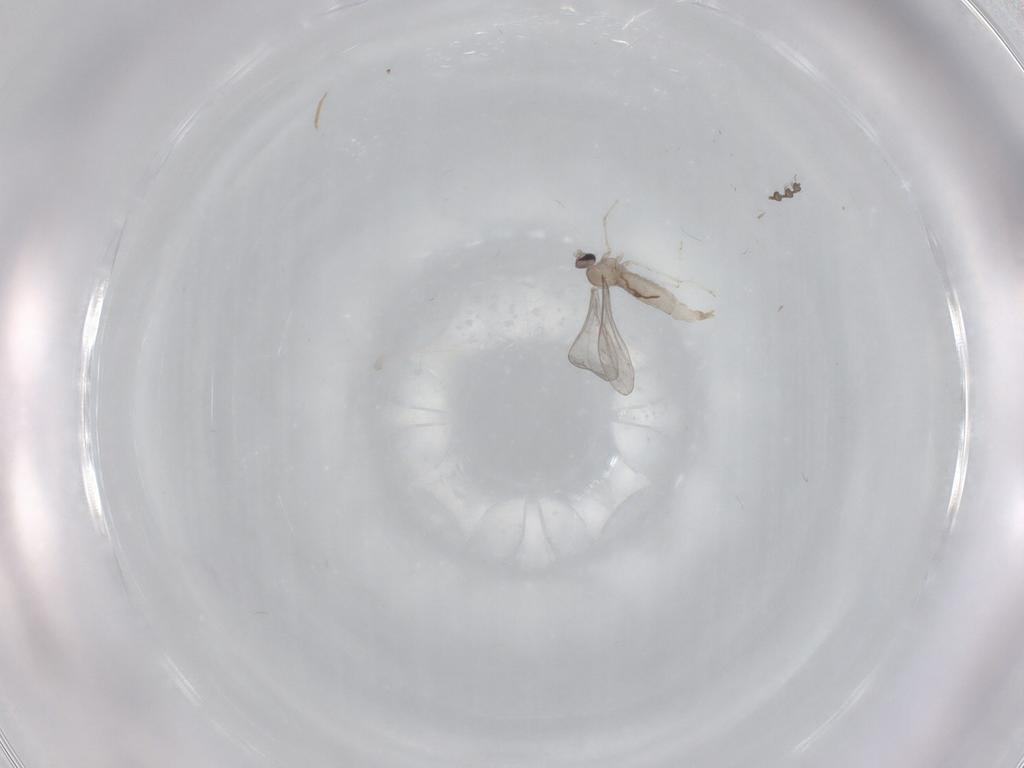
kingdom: Animalia
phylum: Arthropoda
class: Insecta
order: Diptera
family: Cecidomyiidae
